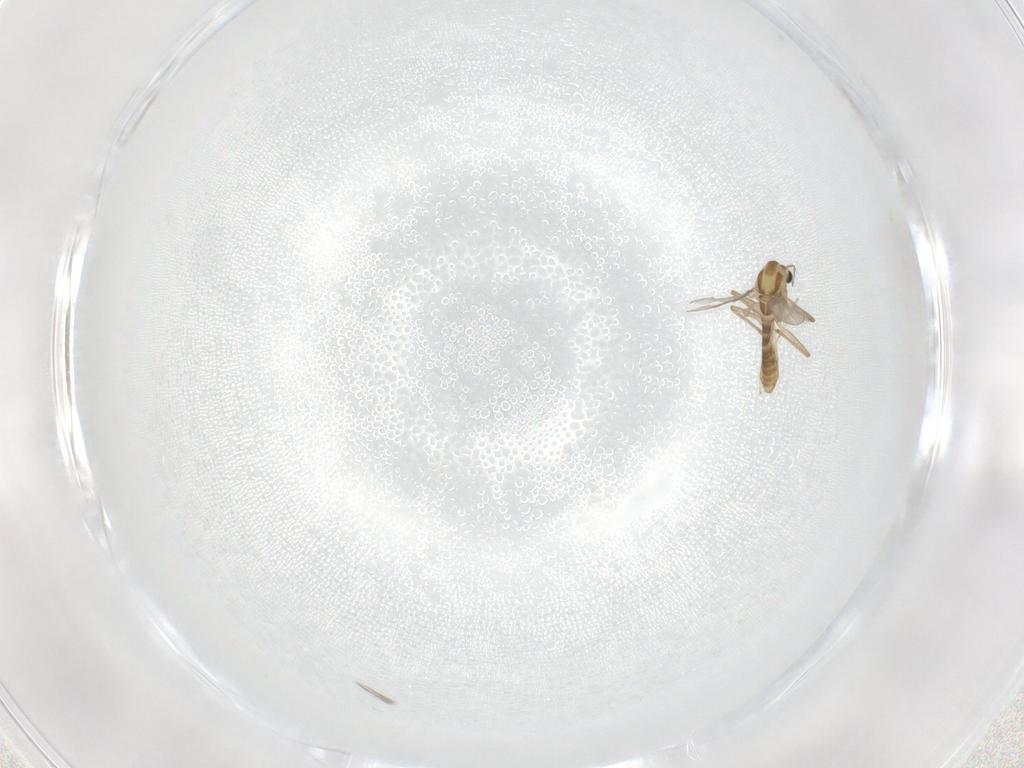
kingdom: Animalia
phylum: Arthropoda
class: Insecta
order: Diptera
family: Chironomidae
